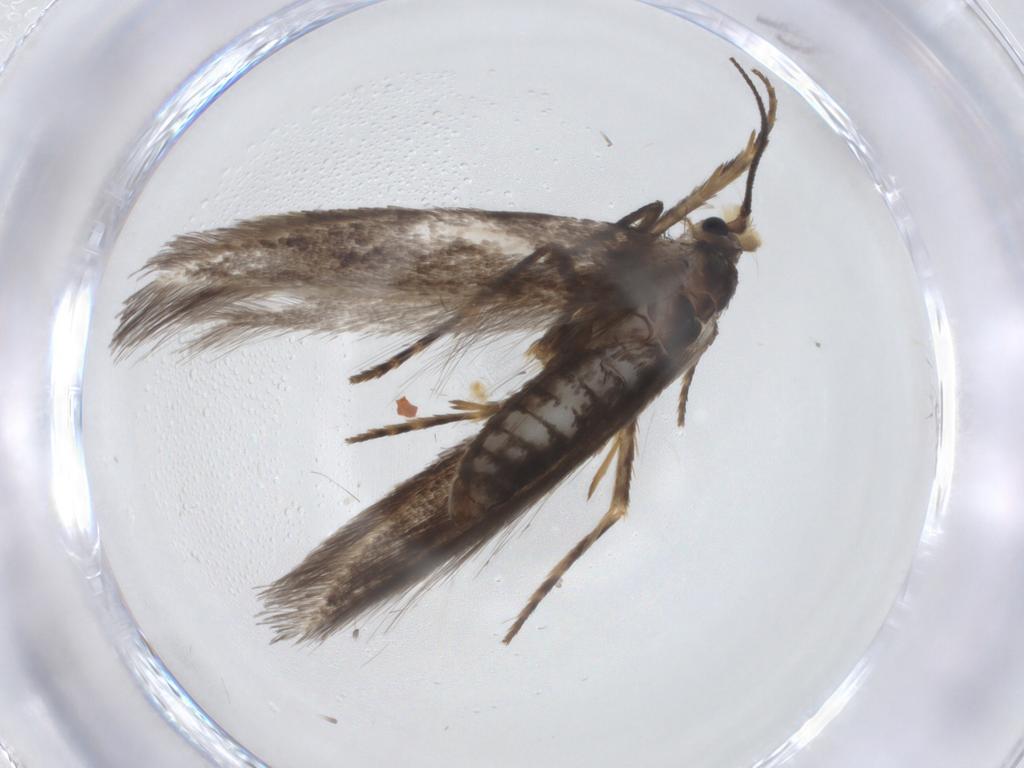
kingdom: Animalia
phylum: Arthropoda
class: Insecta
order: Lepidoptera
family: Nepticulidae
